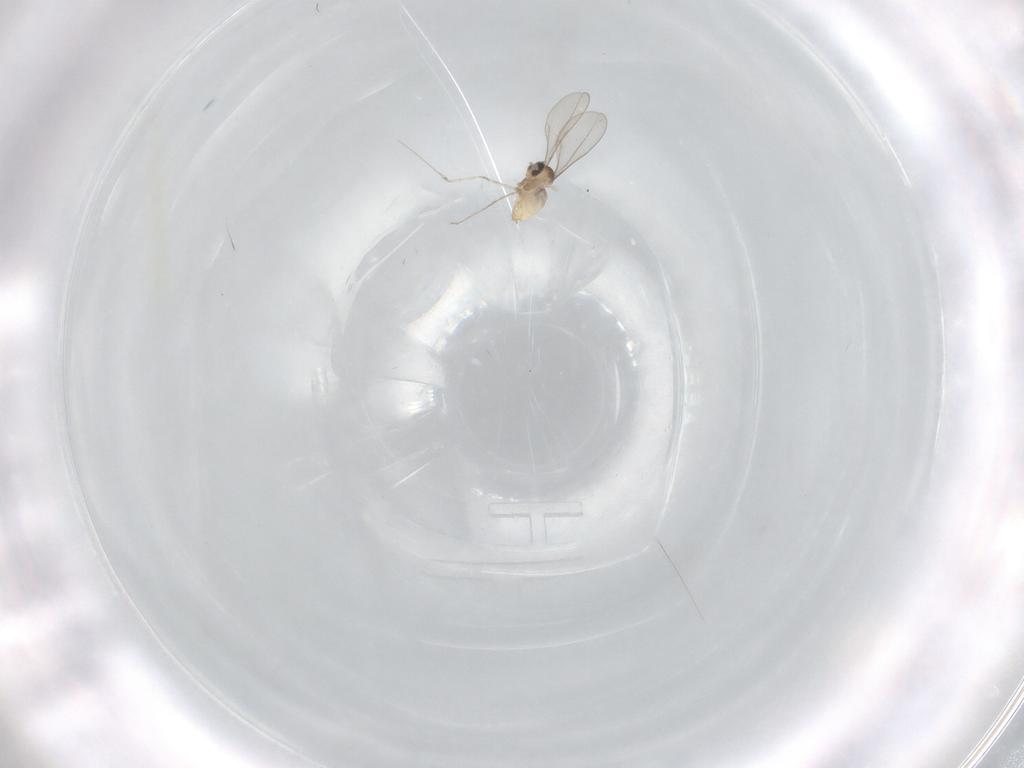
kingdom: Animalia
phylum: Arthropoda
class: Insecta
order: Diptera
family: Cecidomyiidae
